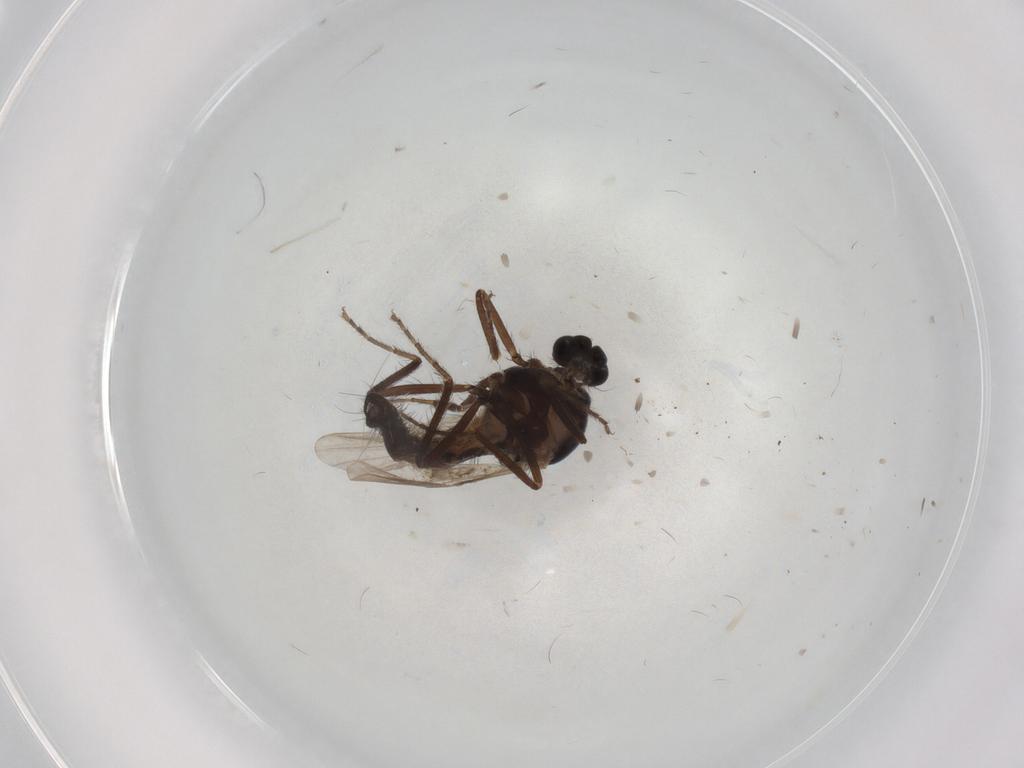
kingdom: Animalia
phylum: Arthropoda
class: Insecta
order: Diptera
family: Ceratopogonidae
